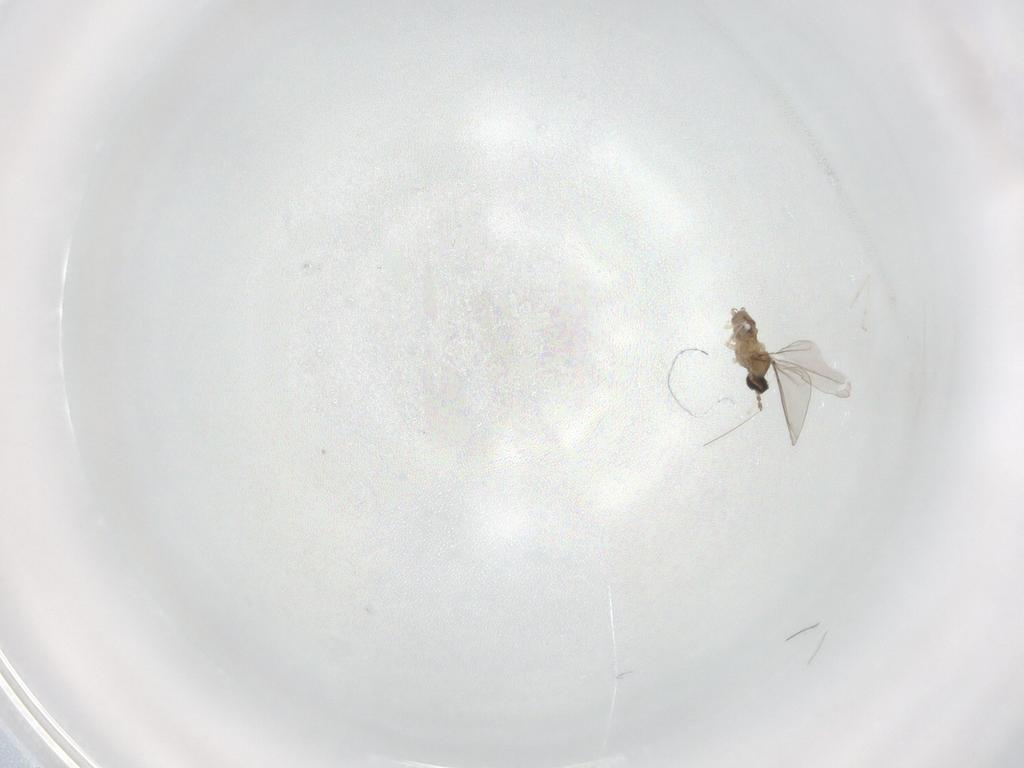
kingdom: Animalia
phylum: Arthropoda
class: Insecta
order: Diptera
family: Cecidomyiidae
